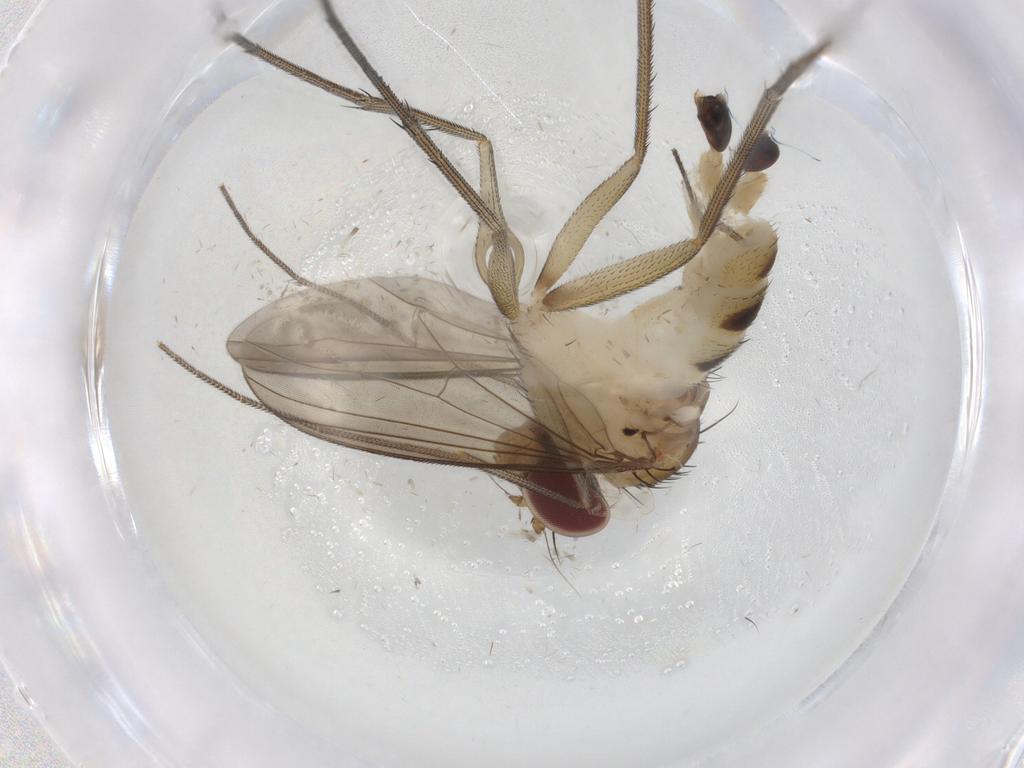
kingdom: Animalia
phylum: Arthropoda
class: Insecta
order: Diptera
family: Dolichopodidae
